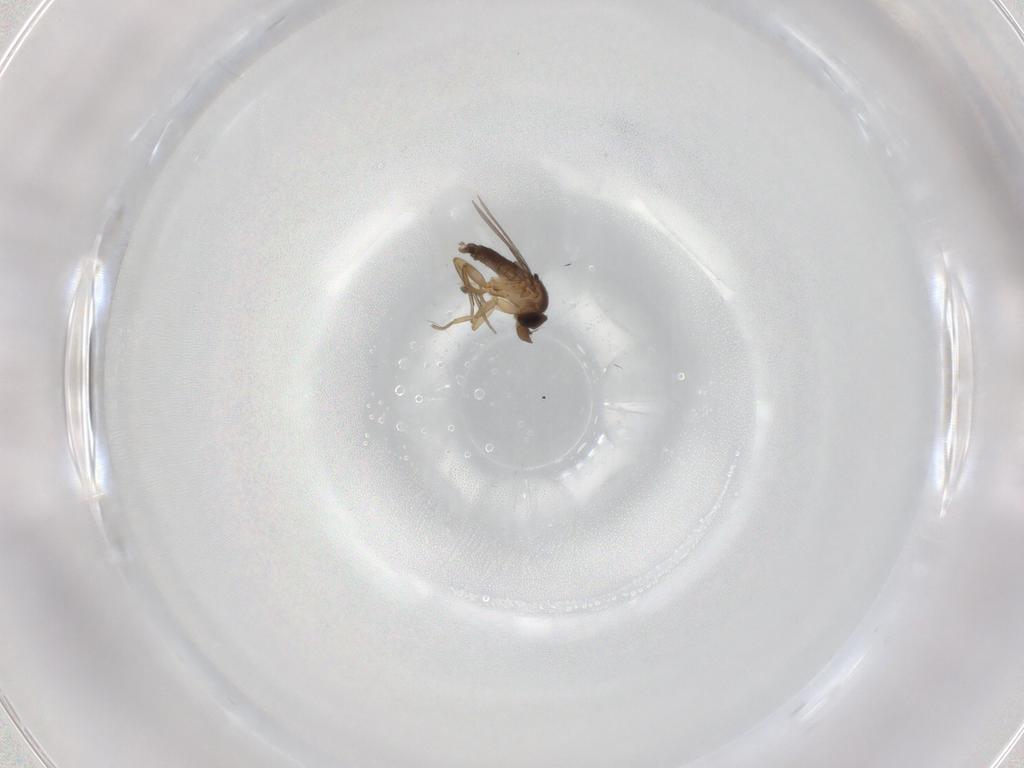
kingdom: Animalia
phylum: Arthropoda
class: Insecta
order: Diptera
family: Phoridae
